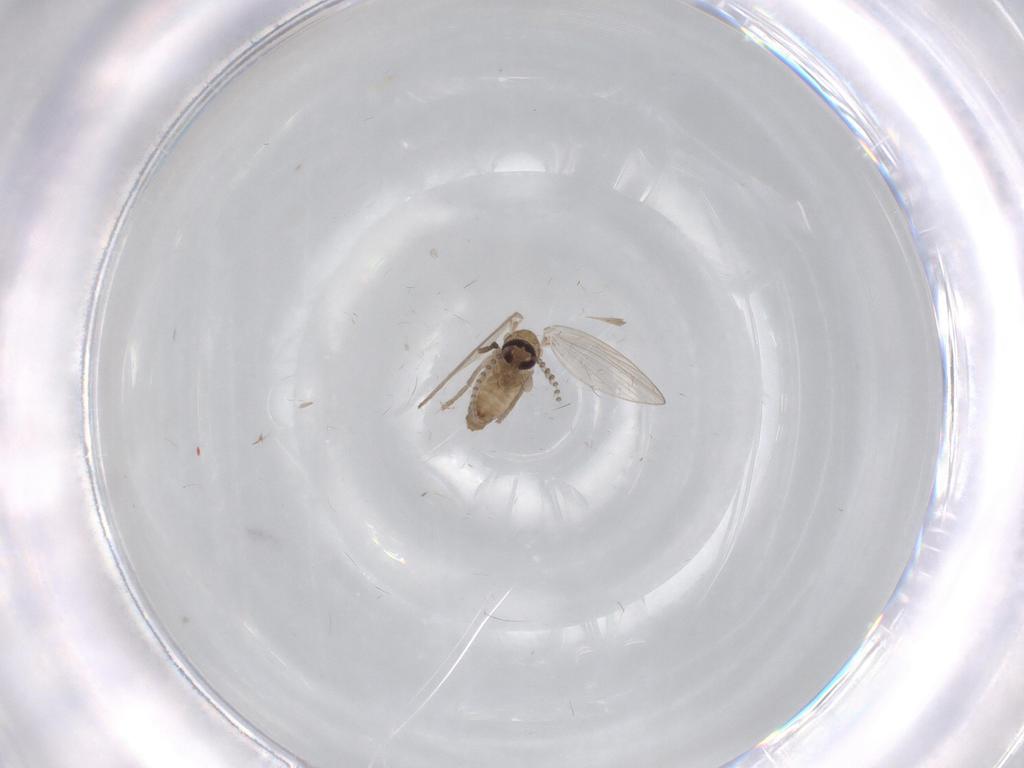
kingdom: Animalia
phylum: Arthropoda
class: Insecta
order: Diptera
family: Psychodidae
